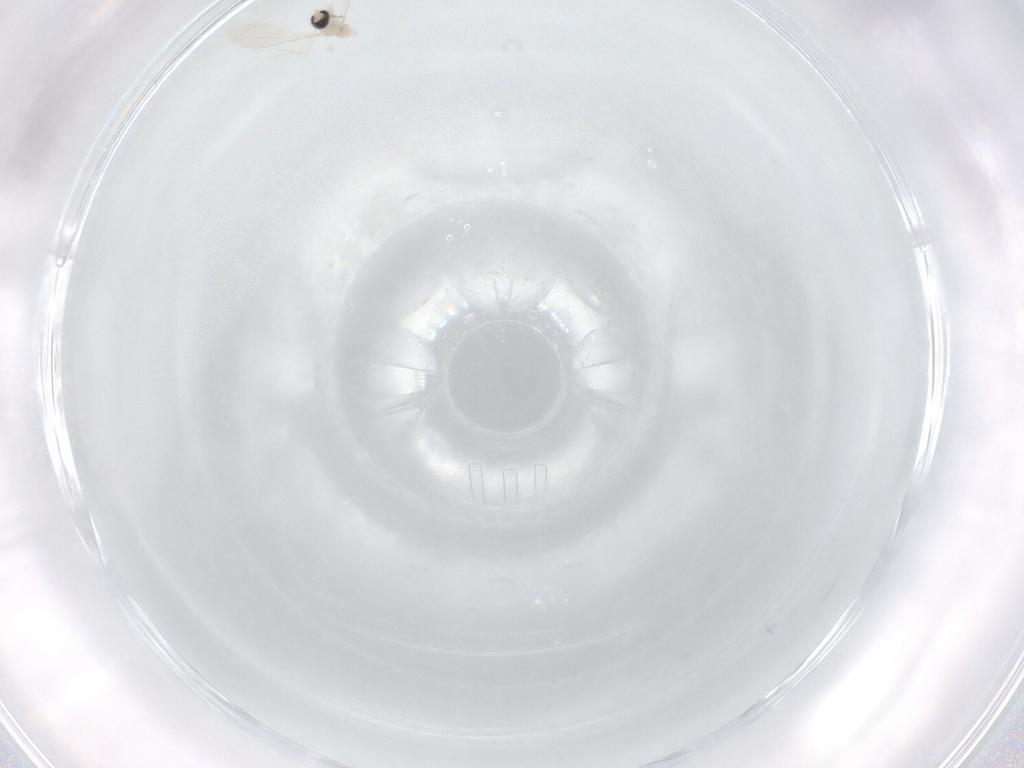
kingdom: Animalia
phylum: Arthropoda
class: Insecta
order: Diptera
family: Cecidomyiidae
